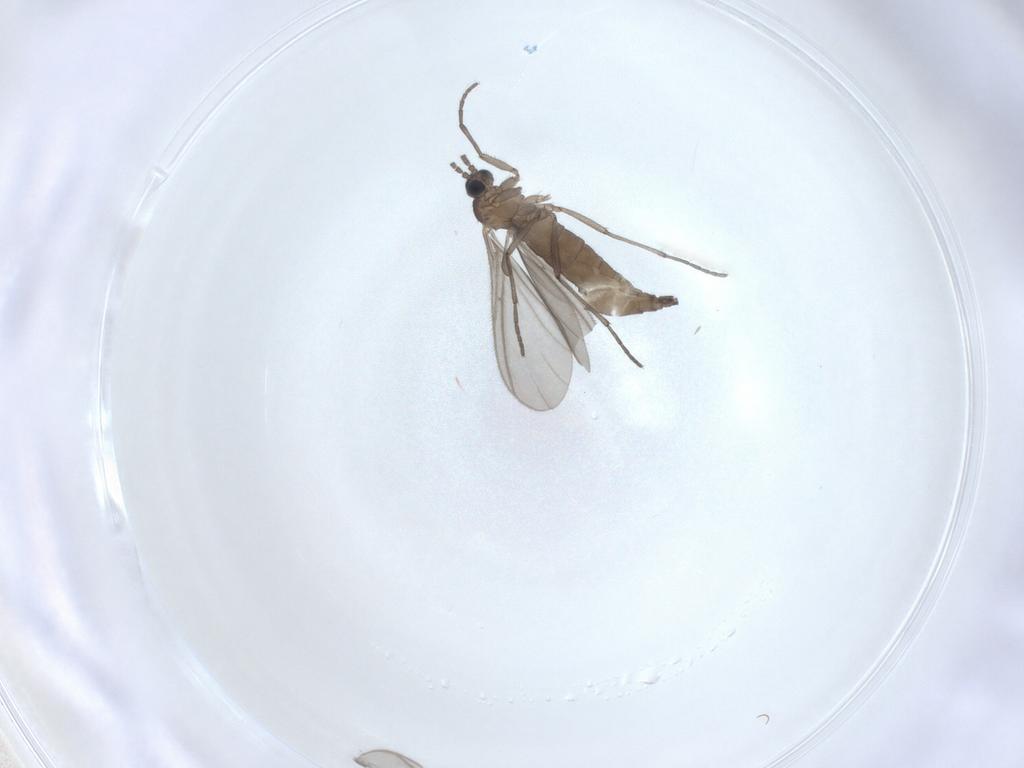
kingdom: Animalia
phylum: Arthropoda
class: Insecta
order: Diptera
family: Sciaridae
